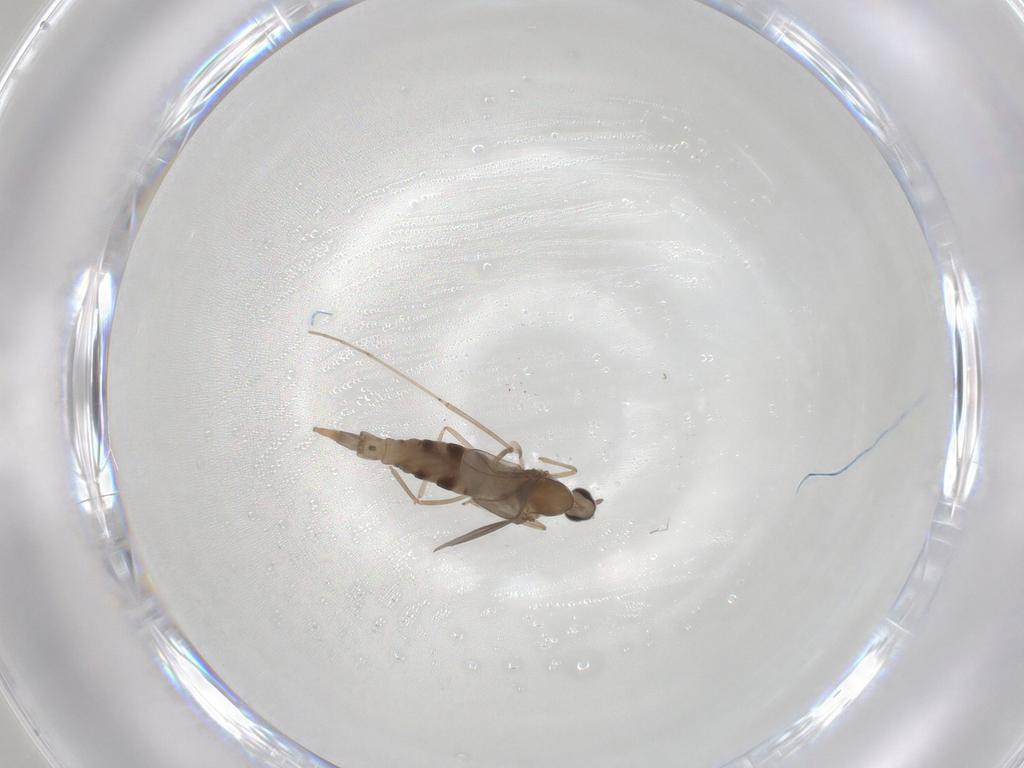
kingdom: Animalia
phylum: Arthropoda
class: Insecta
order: Diptera
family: Cecidomyiidae
